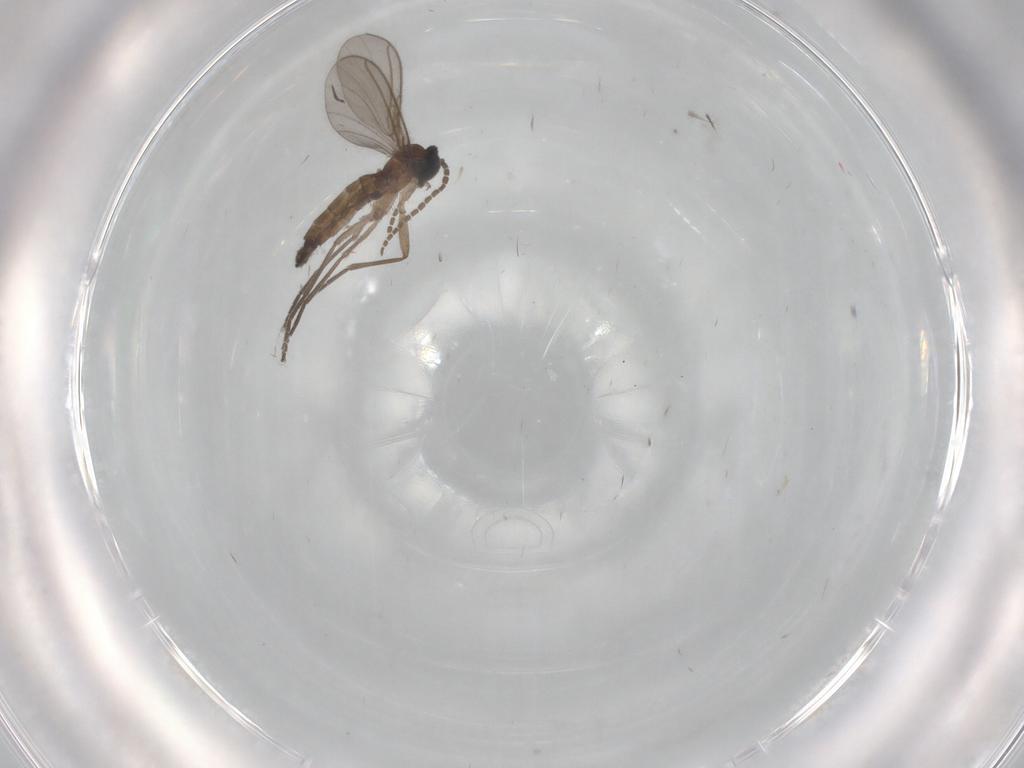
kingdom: Animalia
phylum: Arthropoda
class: Insecta
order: Diptera
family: Sciaridae
